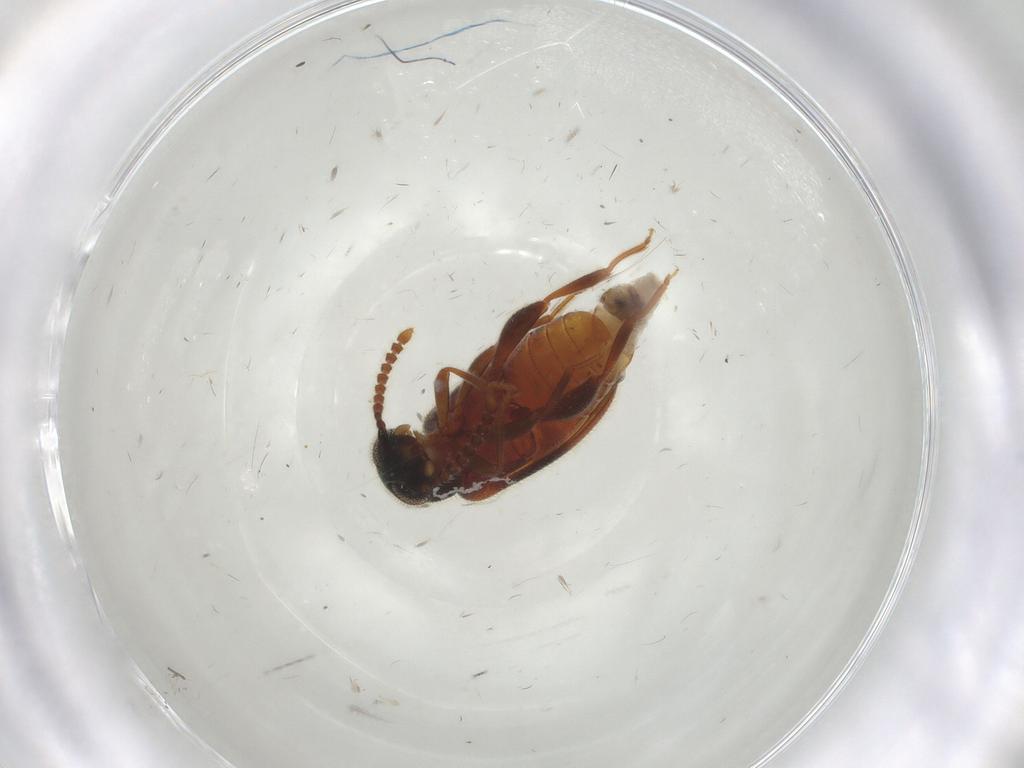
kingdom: Animalia
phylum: Arthropoda
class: Insecta
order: Coleoptera
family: Aderidae
